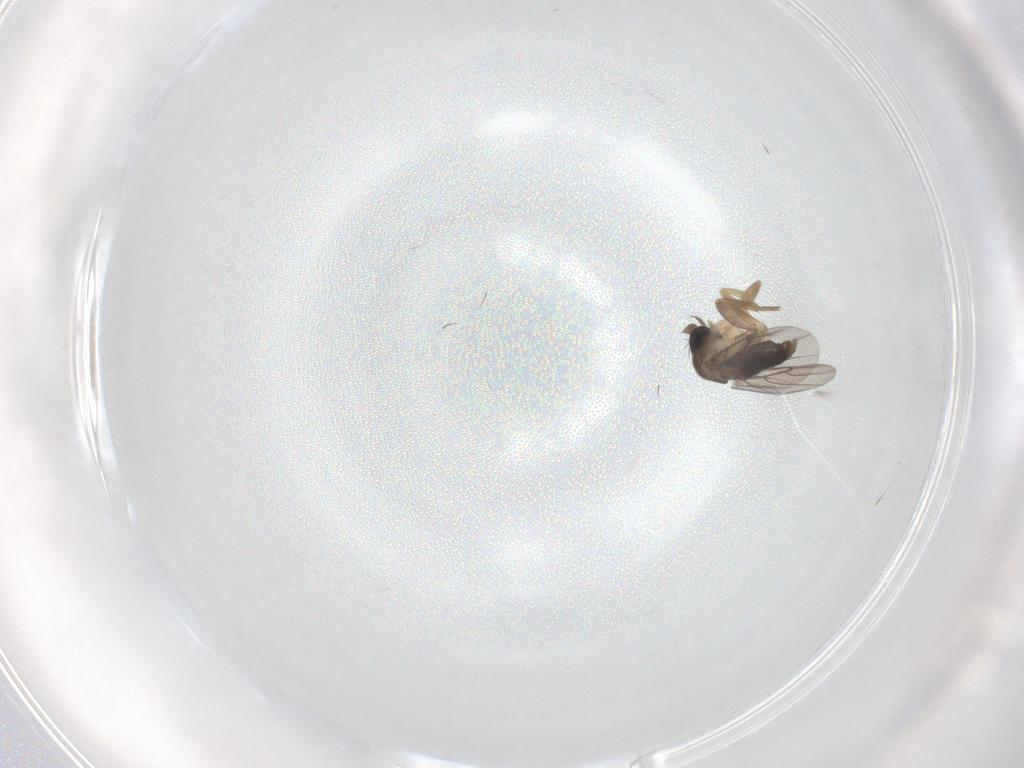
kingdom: Animalia
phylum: Arthropoda
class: Insecta
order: Diptera
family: Phoridae
